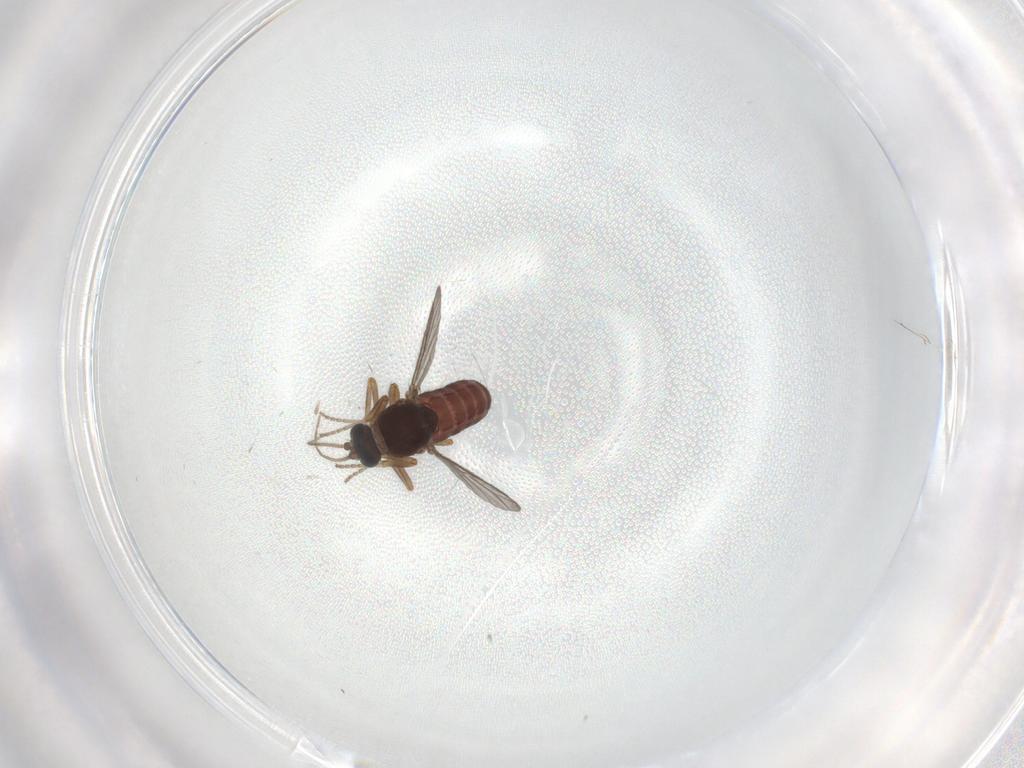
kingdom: Animalia
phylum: Arthropoda
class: Insecta
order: Diptera
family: Ceratopogonidae
